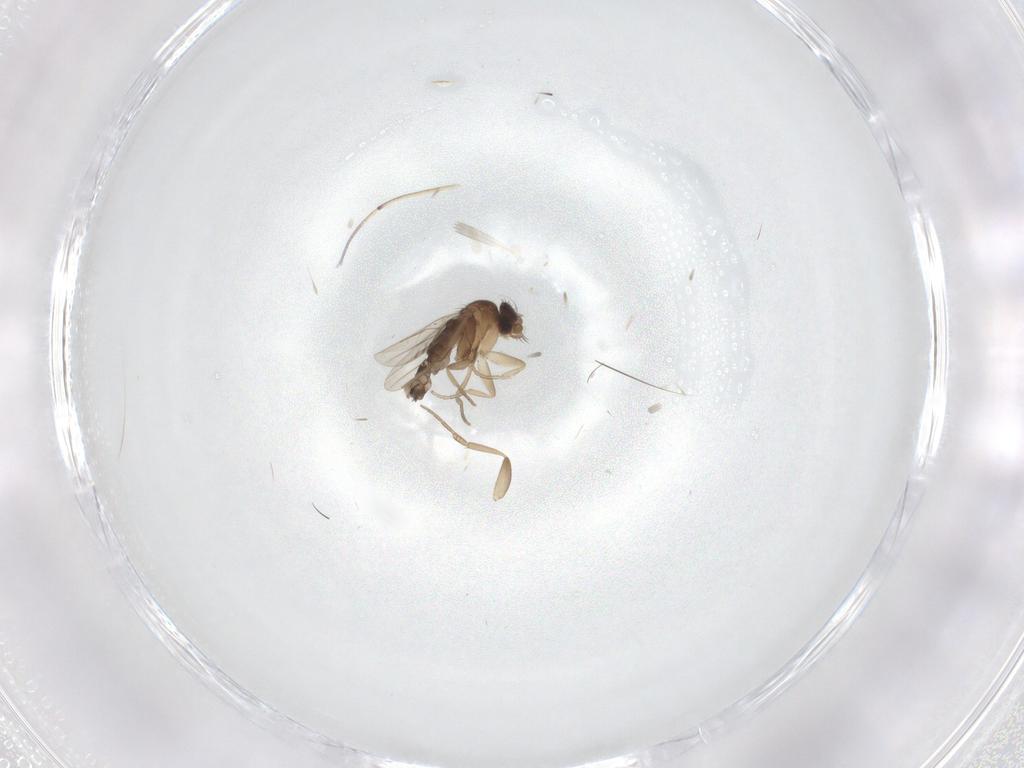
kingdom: Animalia
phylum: Arthropoda
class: Insecta
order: Diptera
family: Phoridae
